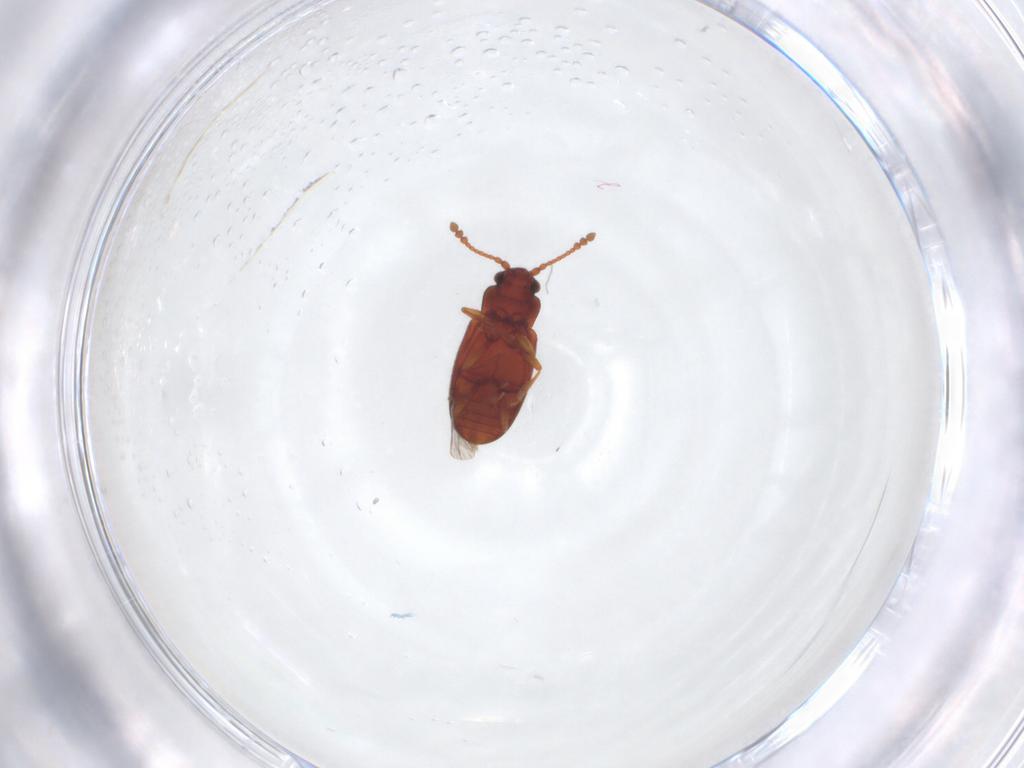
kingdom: Animalia
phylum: Arthropoda
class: Insecta
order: Coleoptera
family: Cryptophagidae
